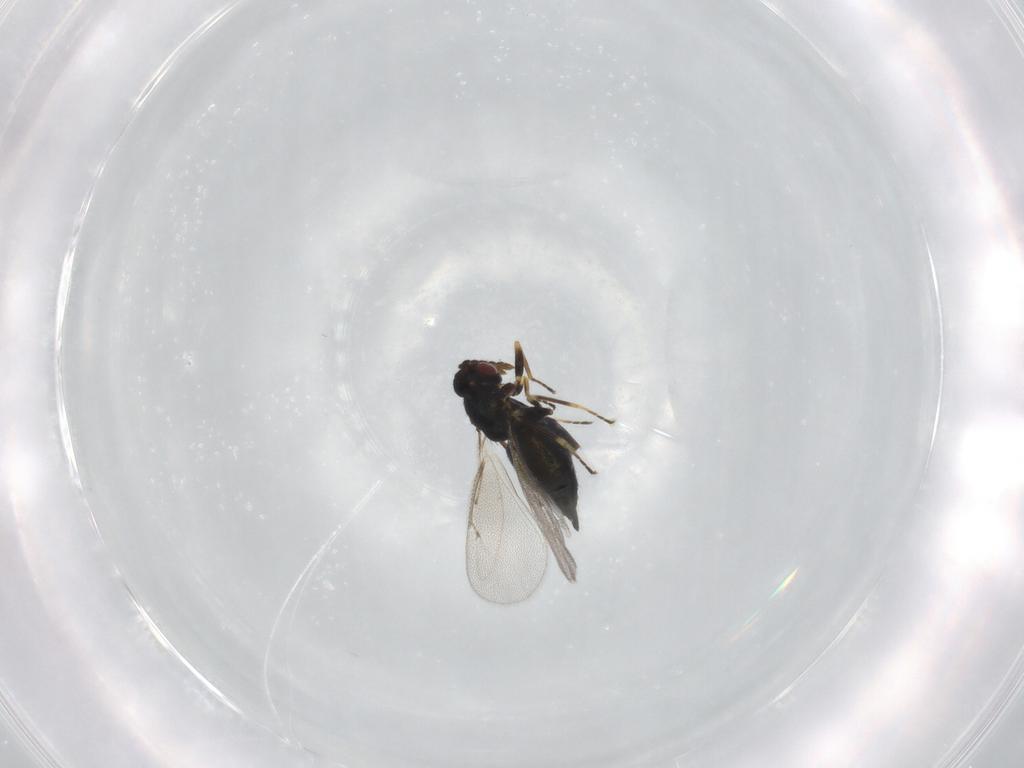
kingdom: Animalia
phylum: Arthropoda
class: Insecta
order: Hymenoptera
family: Eulophidae
